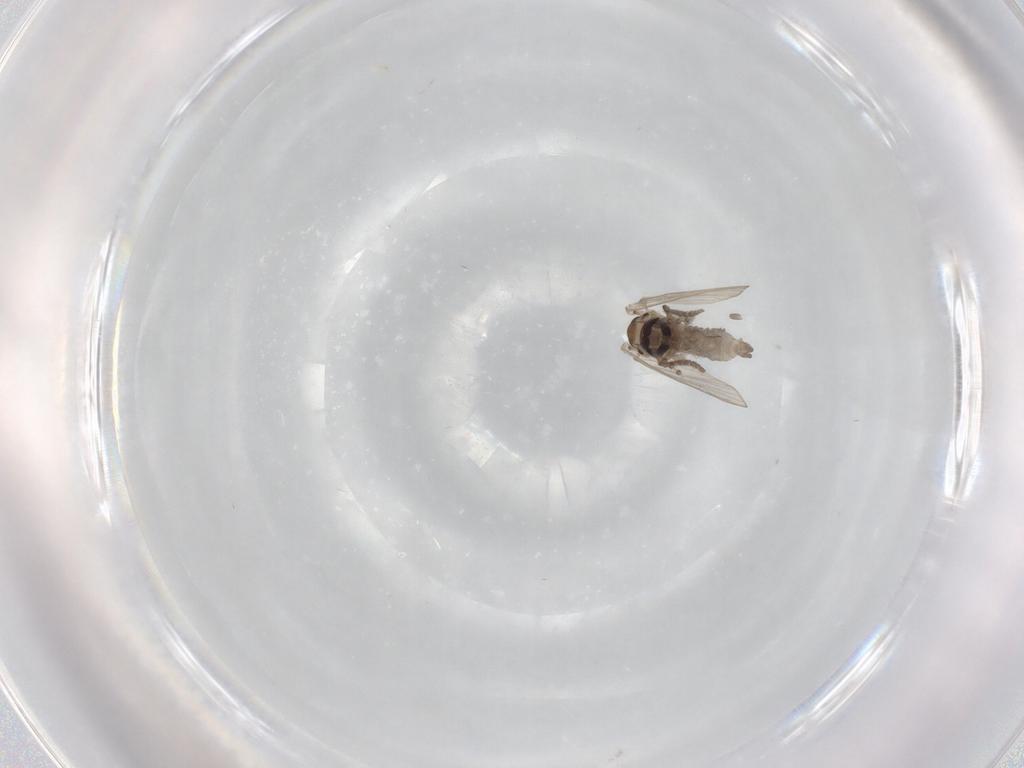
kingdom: Animalia
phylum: Arthropoda
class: Insecta
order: Diptera
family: Psychodidae
